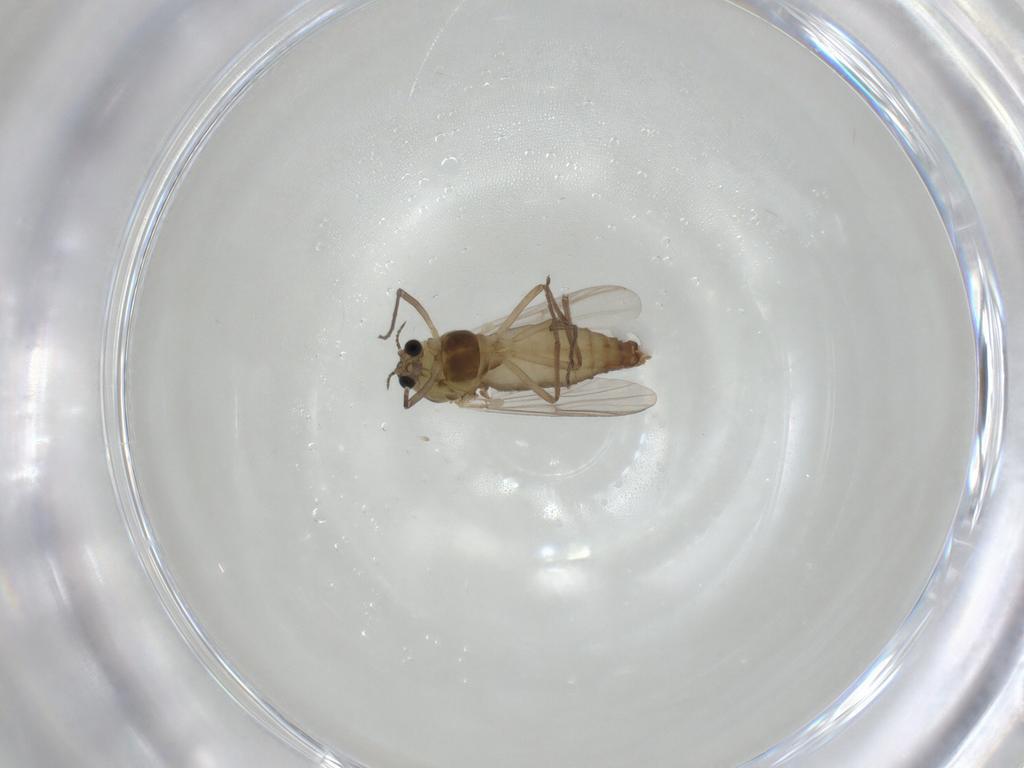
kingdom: Animalia
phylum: Arthropoda
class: Insecta
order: Diptera
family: Chironomidae
